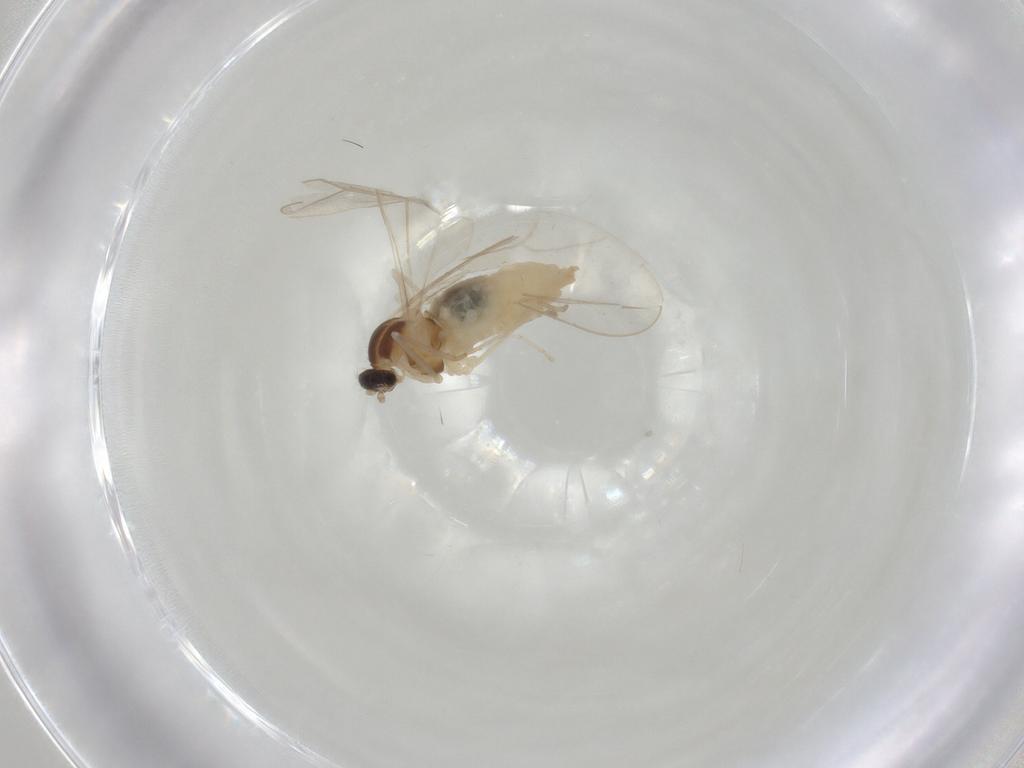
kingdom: Animalia
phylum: Arthropoda
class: Insecta
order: Diptera
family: Cecidomyiidae
